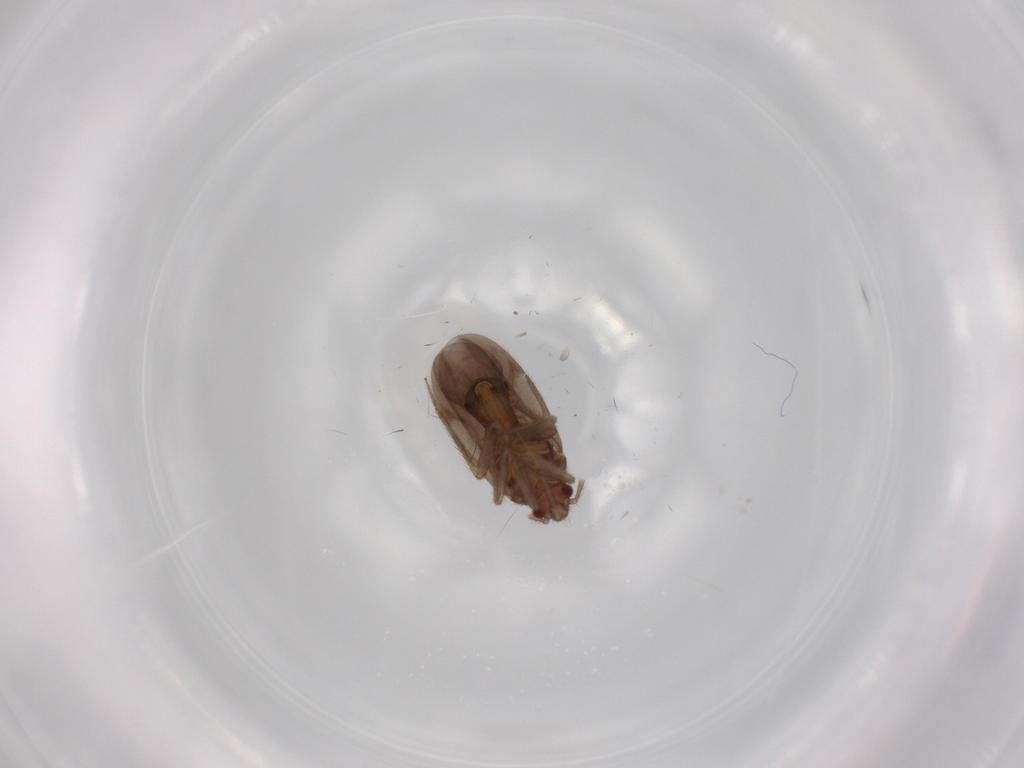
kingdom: Animalia
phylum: Arthropoda
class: Insecta
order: Hemiptera
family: Ceratocombidae
